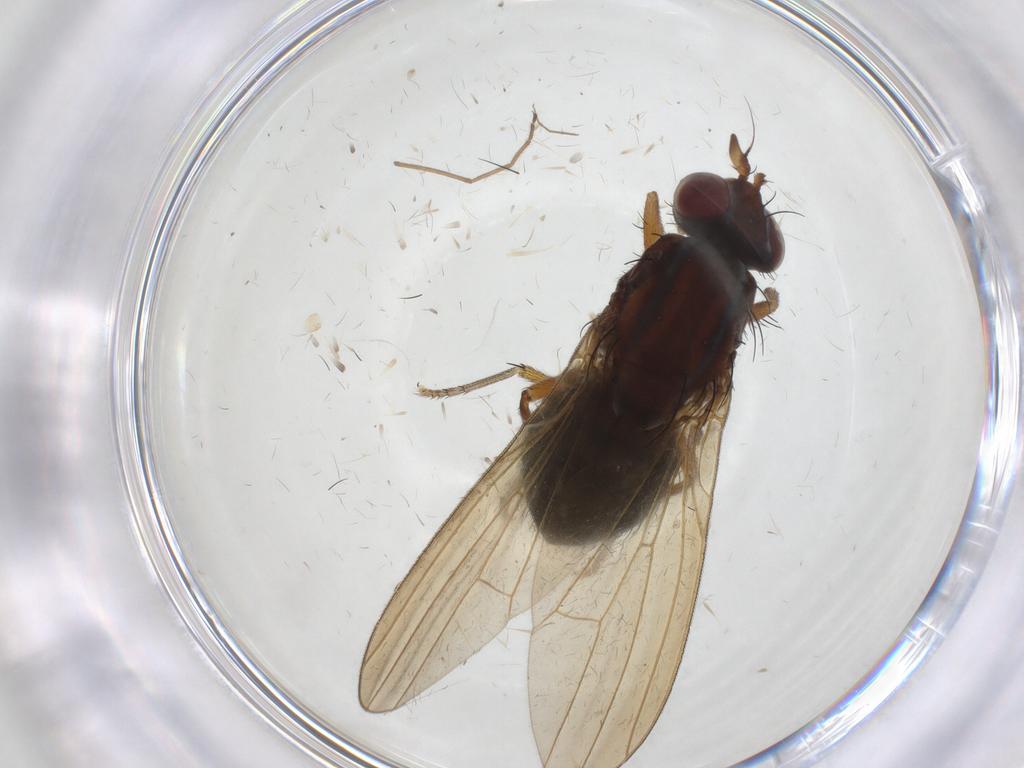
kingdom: Animalia
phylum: Arthropoda
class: Insecta
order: Diptera
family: Chironomidae
